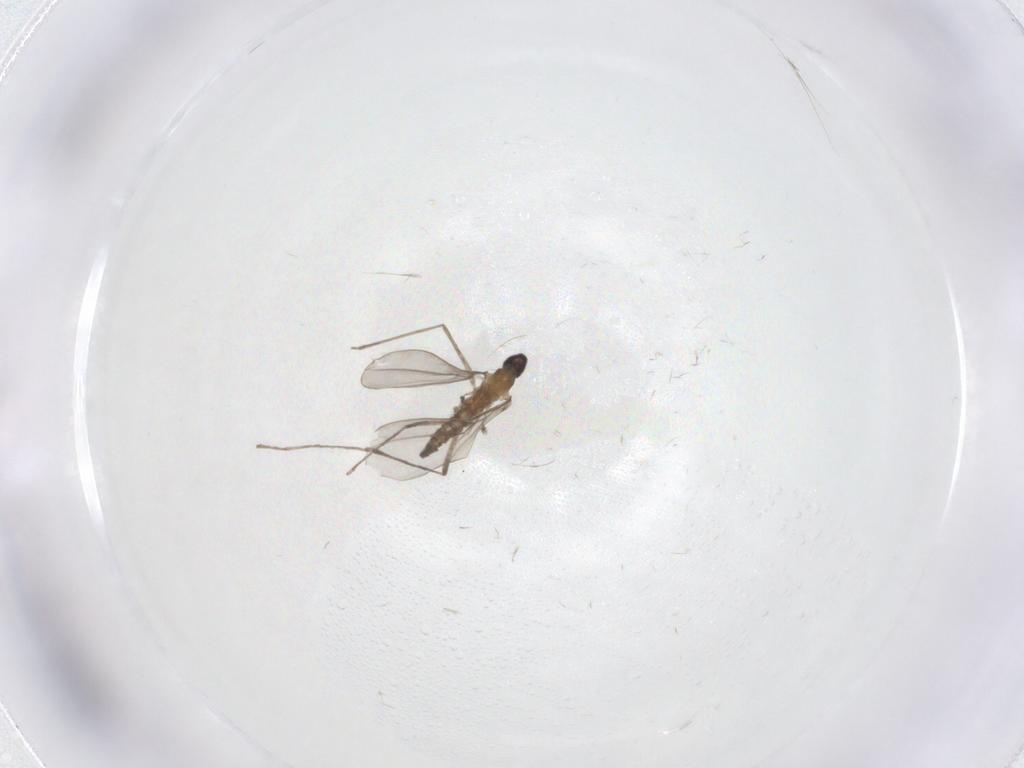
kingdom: Animalia
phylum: Arthropoda
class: Insecta
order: Diptera
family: Cecidomyiidae
